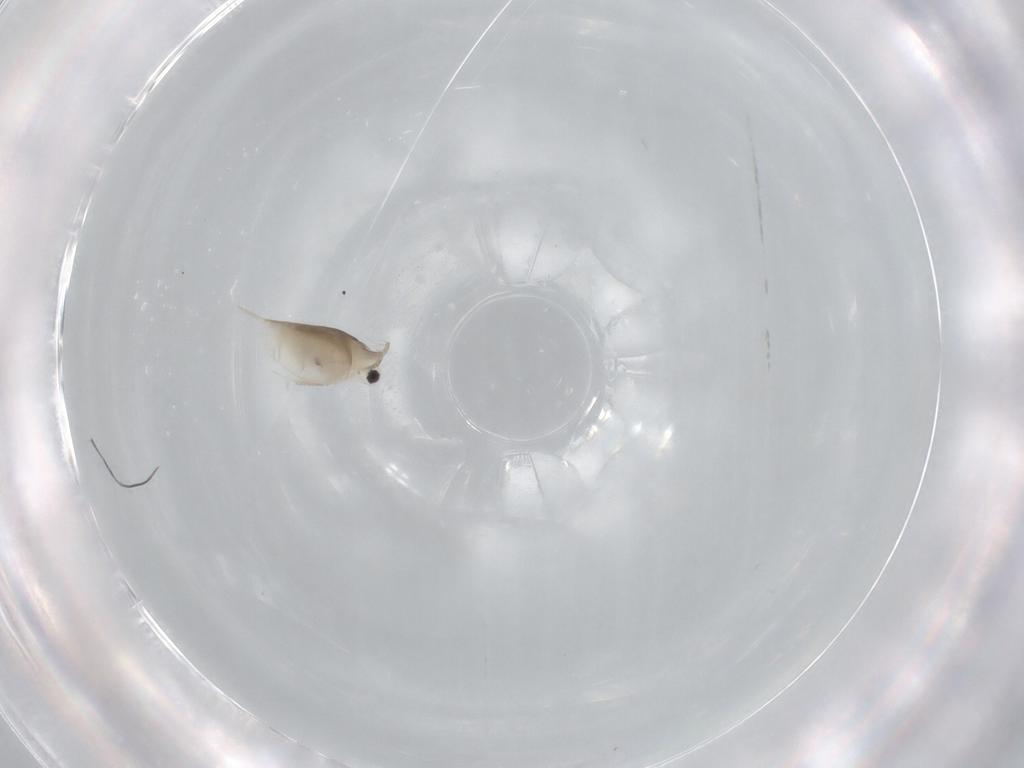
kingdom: Animalia
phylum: Arthropoda
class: Branchiopoda
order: Diplostraca
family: Daphniidae
